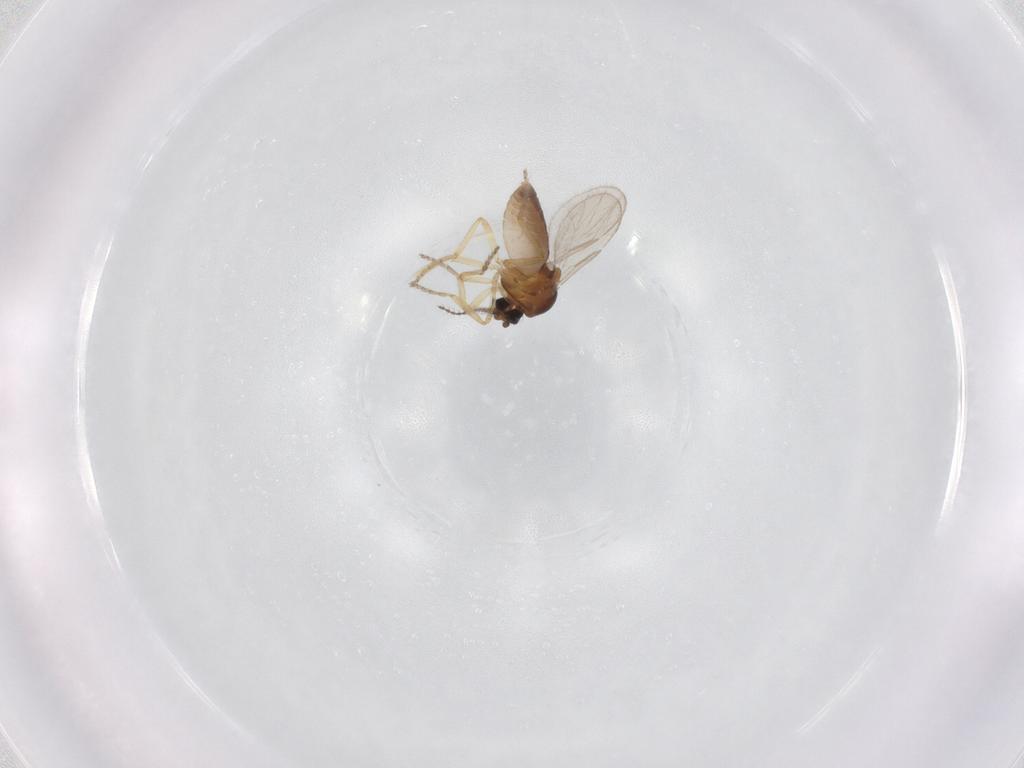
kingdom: Animalia
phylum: Arthropoda
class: Insecta
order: Diptera
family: Ceratopogonidae
